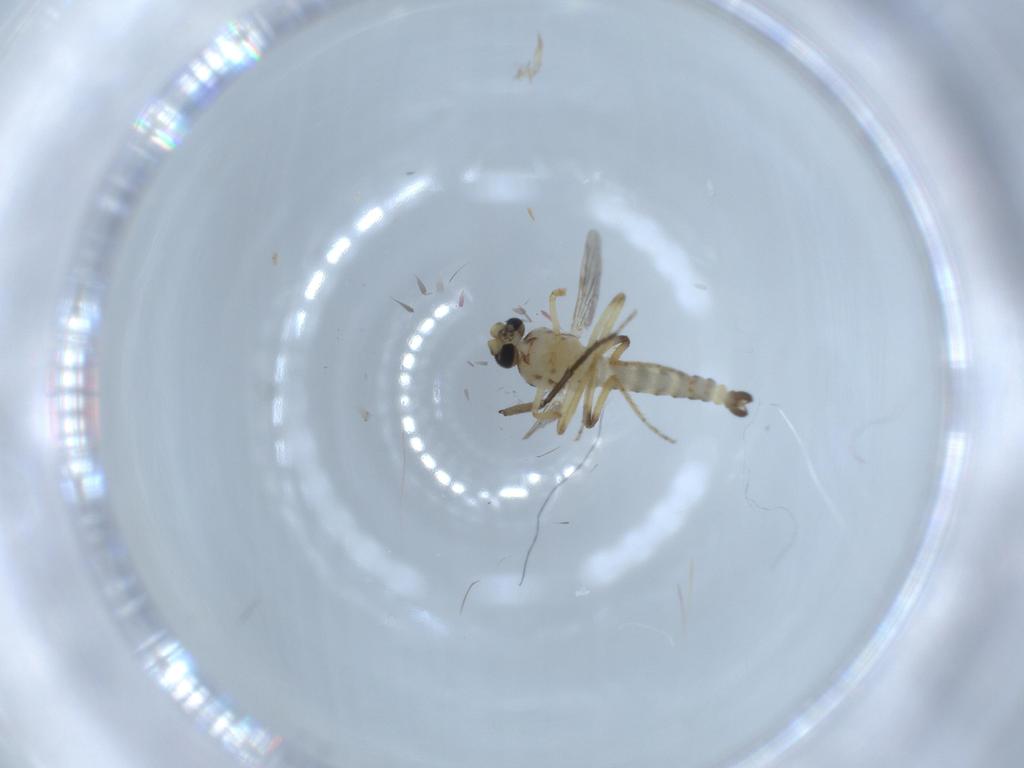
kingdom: Animalia
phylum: Arthropoda
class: Insecta
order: Diptera
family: Sciaridae
